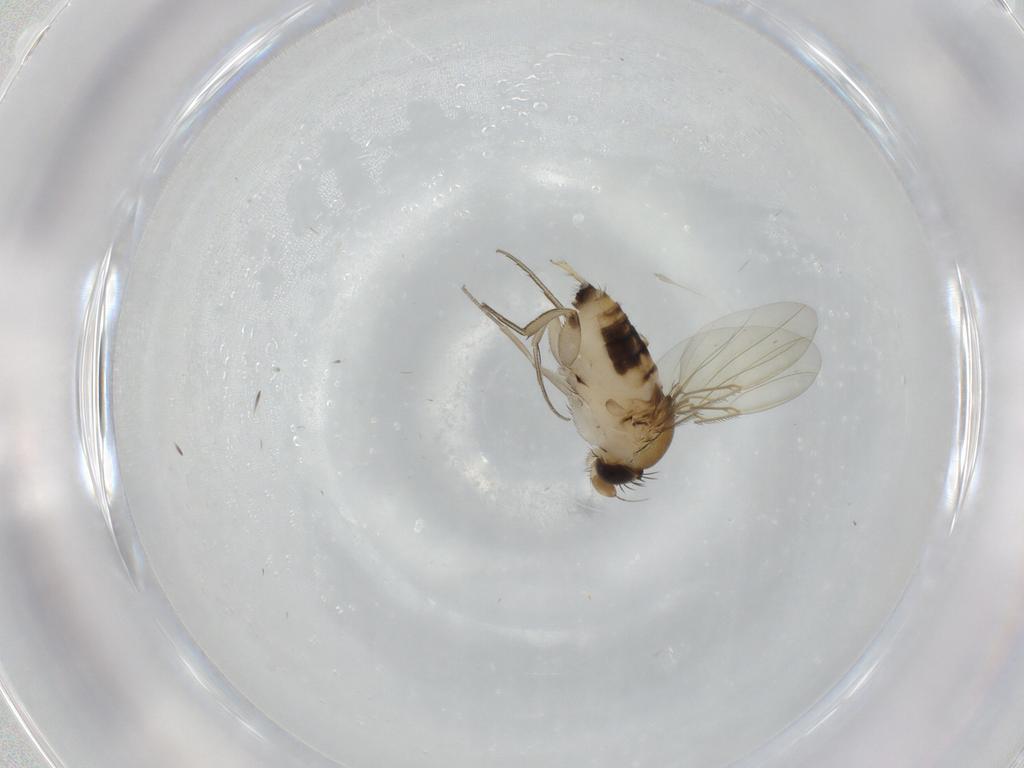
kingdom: Animalia
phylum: Arthropoda
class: Insecta
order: Diptera
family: Phoridae
